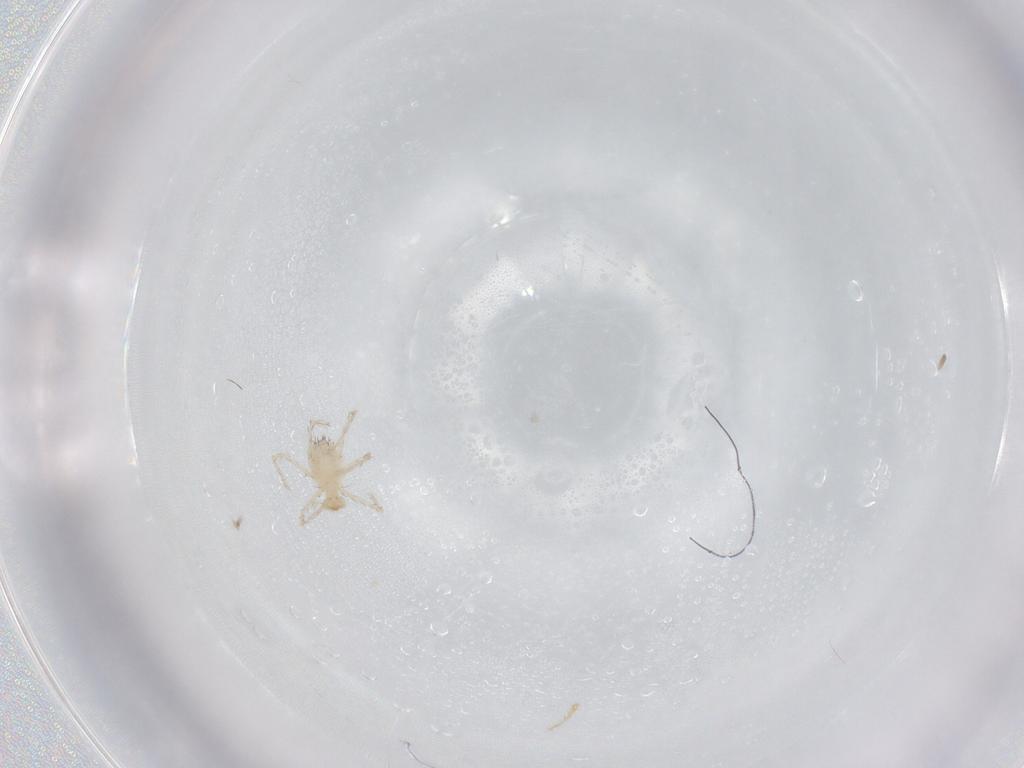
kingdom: Animalia
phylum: Arthropoda
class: Arachnida
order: Trombidiformes
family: Erythraeidae
